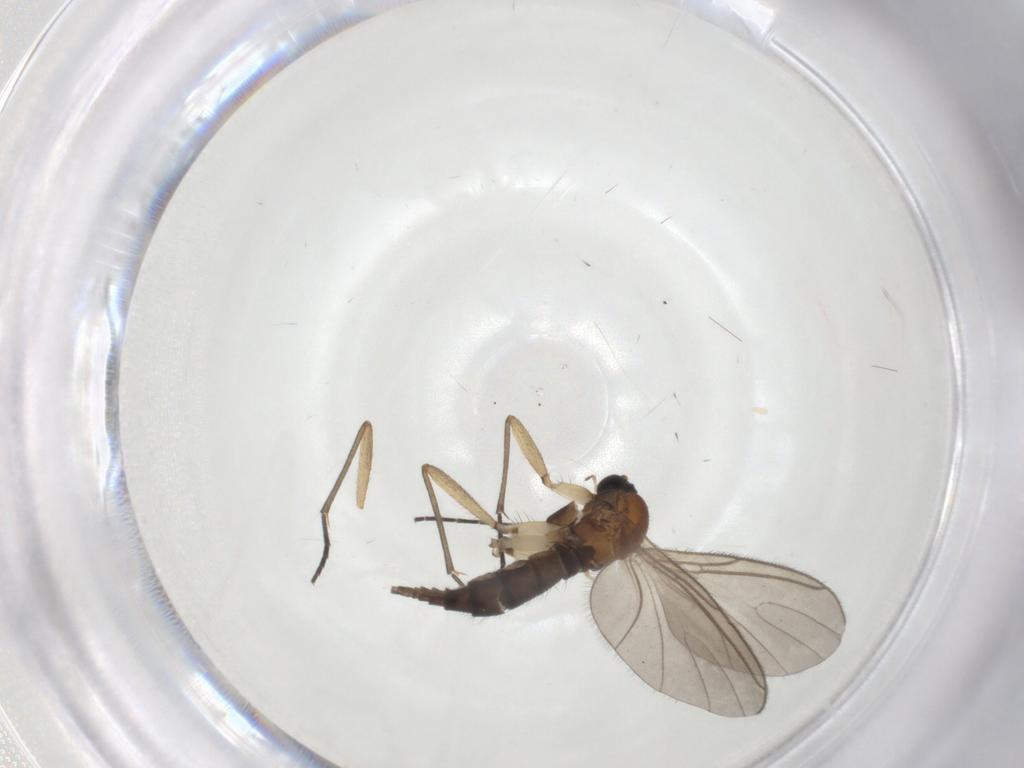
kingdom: Animalia
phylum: Arthropoda
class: Insecta
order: Diptera
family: Sciaridae
